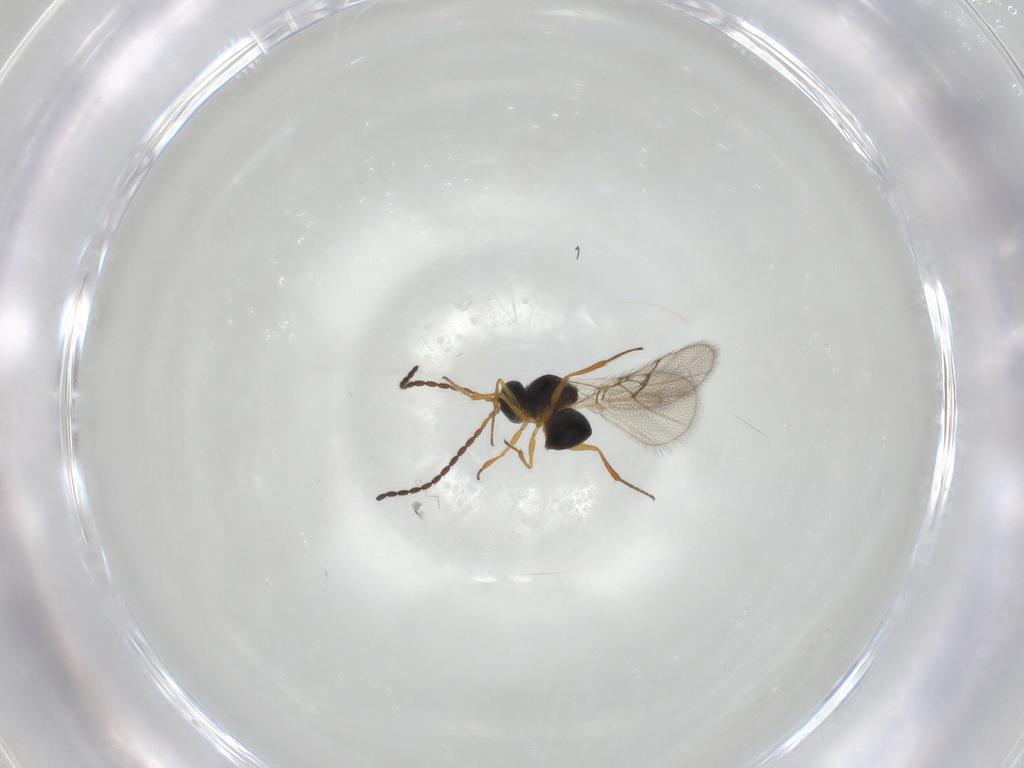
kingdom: Animalia
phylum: Arthropoda
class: Insecta
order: Hymenoptera
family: Figitidae
